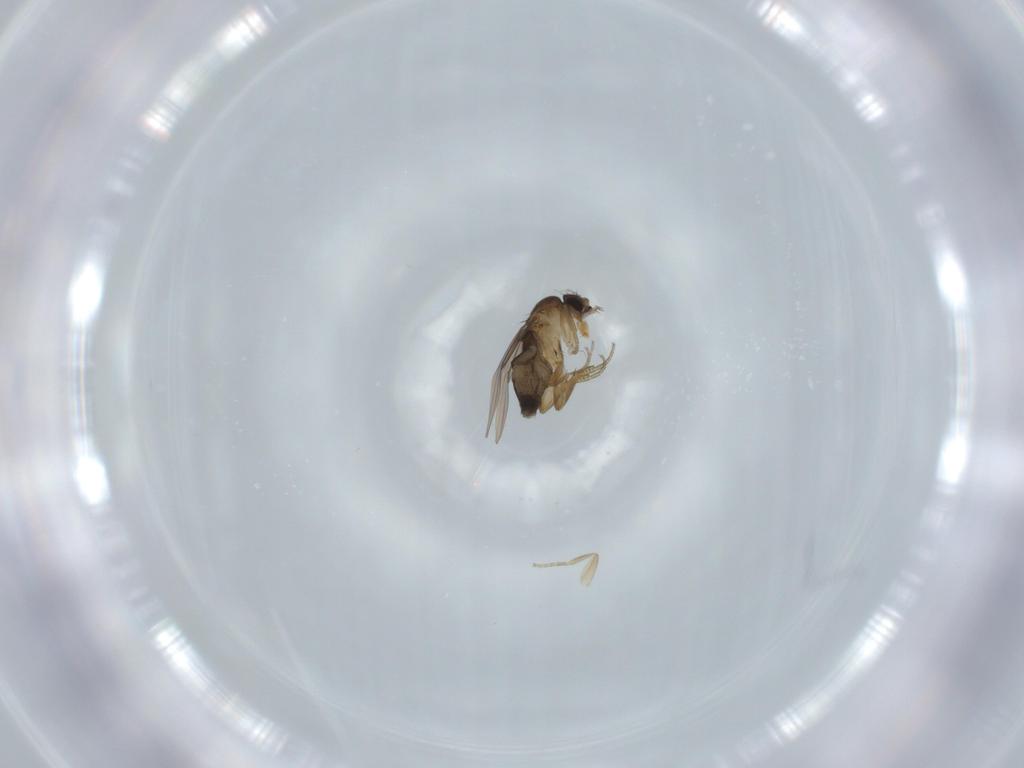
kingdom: Animalia
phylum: Arthropoda
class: Insecta
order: Diptera
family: Phoridae
